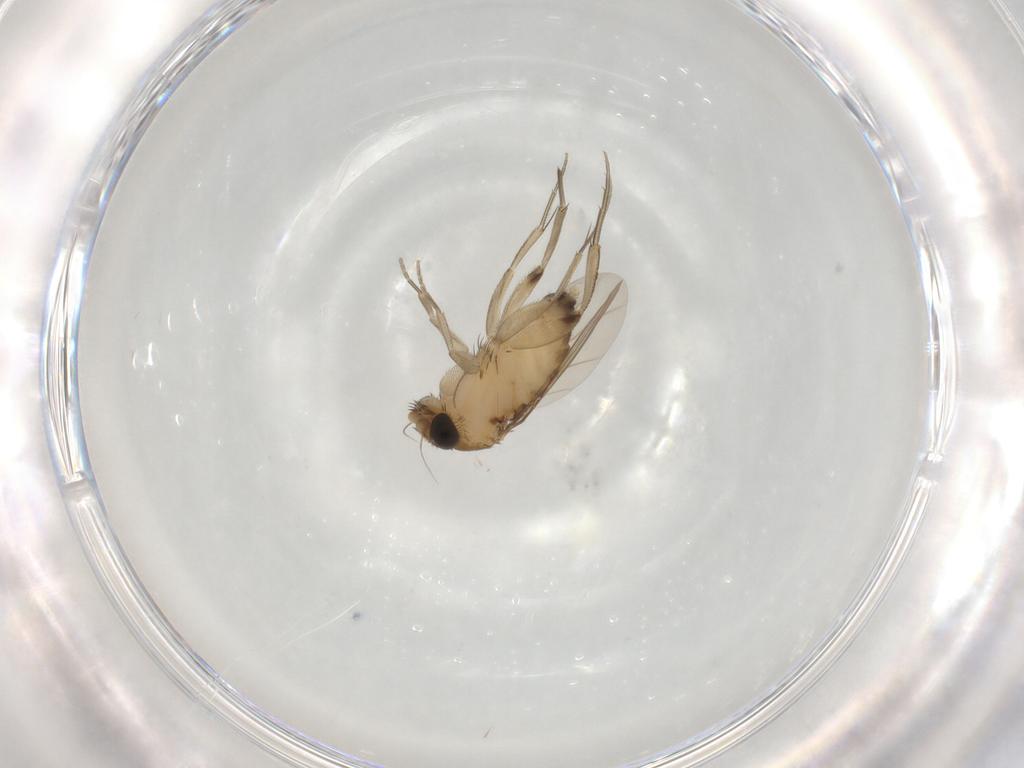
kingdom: Animalia
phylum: Arthropoda
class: Insecta
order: Diptera
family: Phoridae
